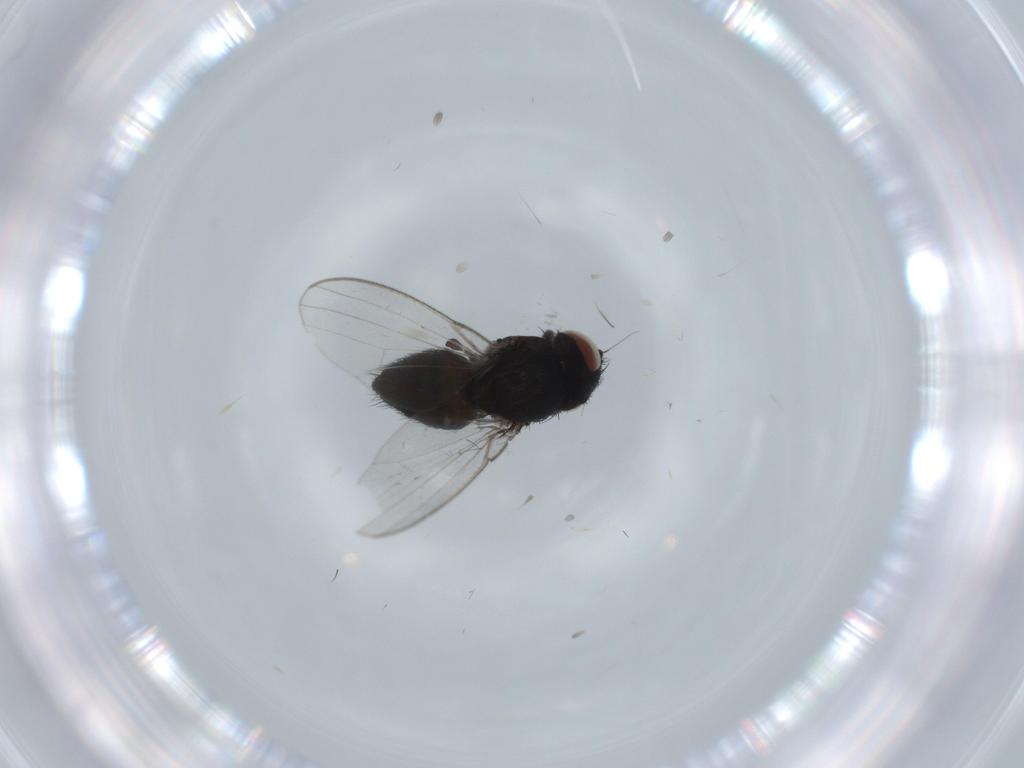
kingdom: Animalia
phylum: Arthropoda
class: Insecta
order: Diptera
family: Milichiidae
